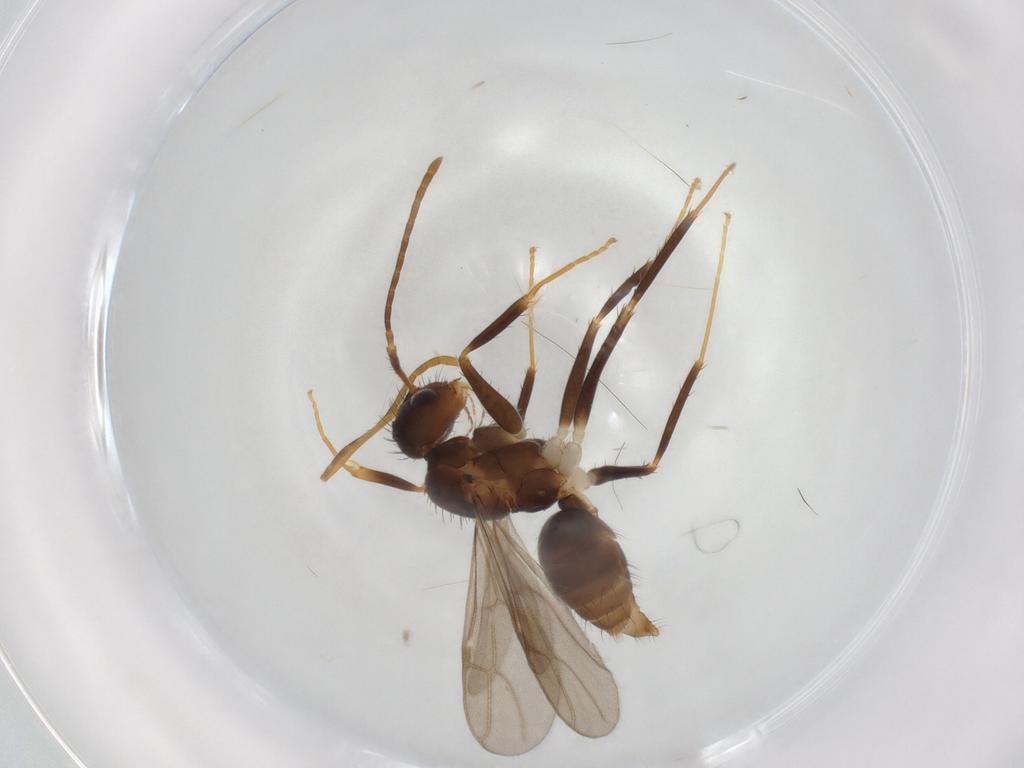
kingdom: Animalia
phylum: Arthropoda
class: Insecta
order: Hymenoptera
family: Formicidae
